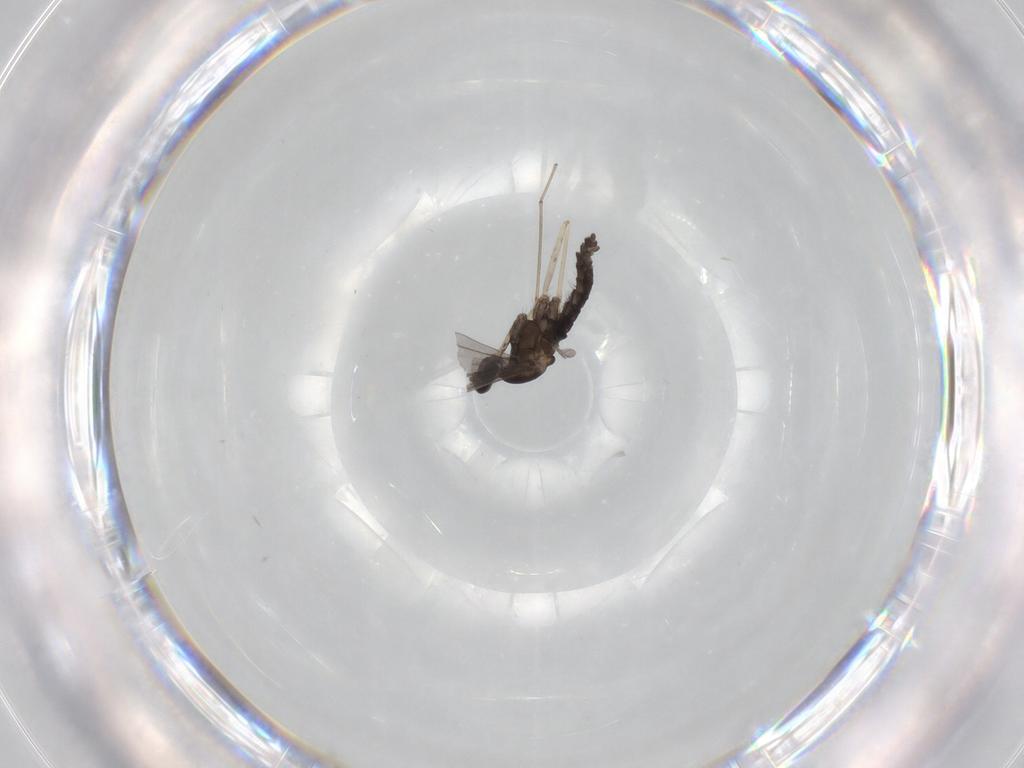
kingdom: Animalia
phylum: Arthropoda
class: Insecta
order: Diptera
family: Cecidomyiidae
